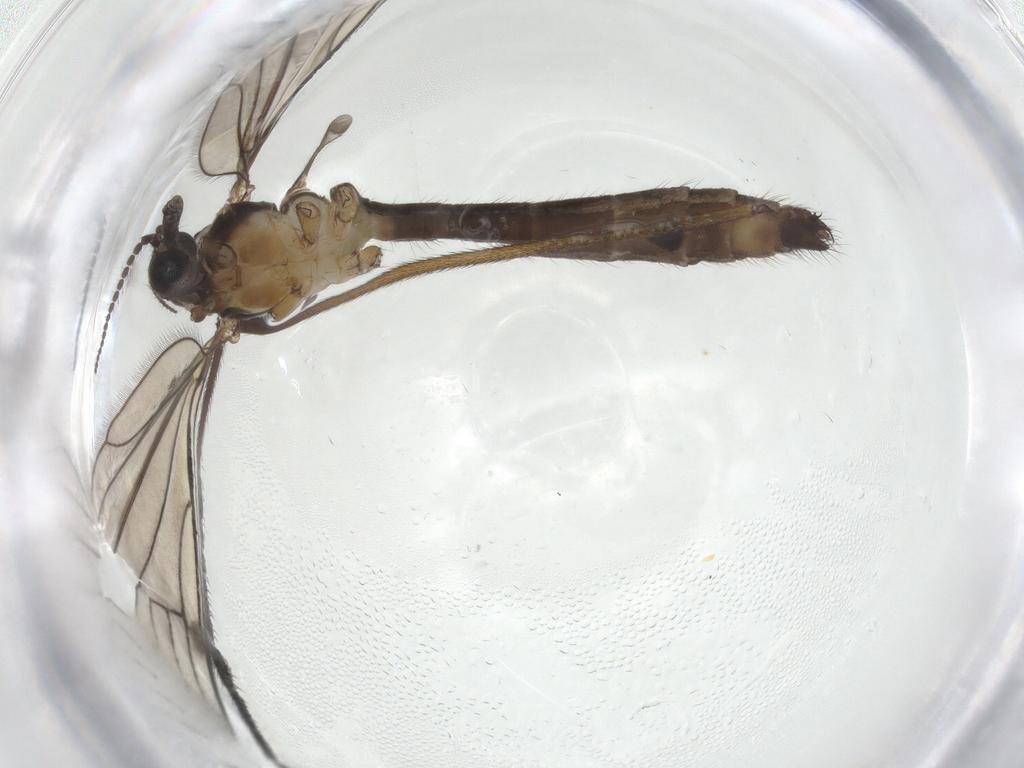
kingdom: Animalia
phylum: Arthropoda
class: Insecta
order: Diptera
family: Limoniidae
